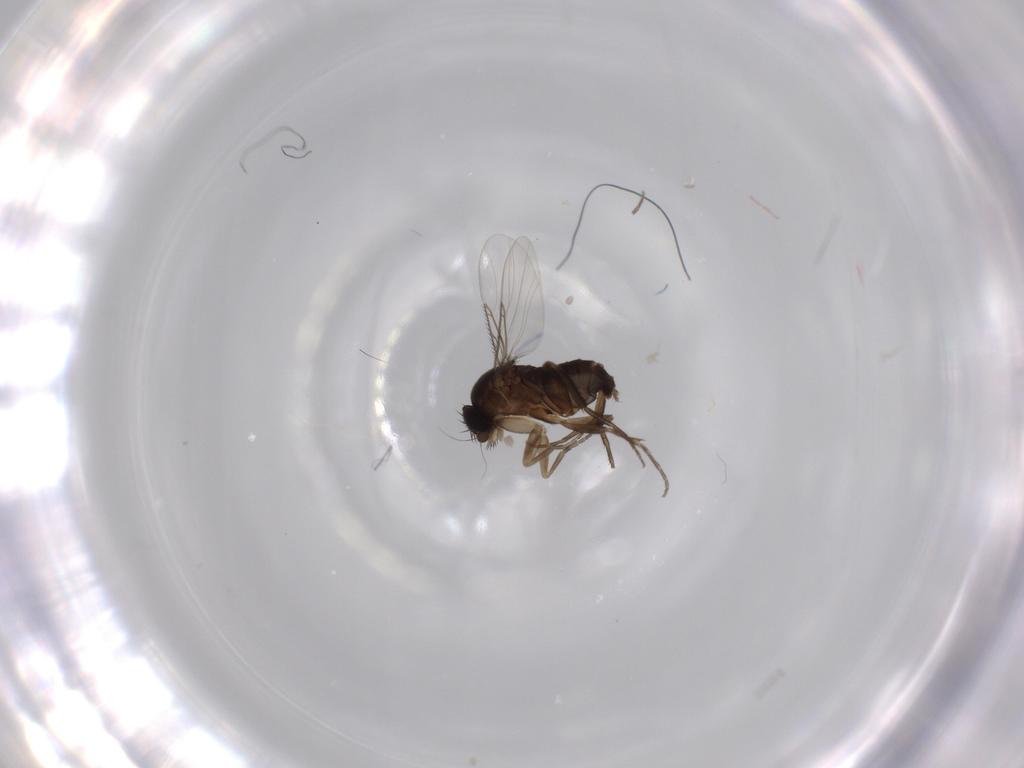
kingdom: Animalia
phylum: Arthropoda
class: Insecta
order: Diptera
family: Phoridae
